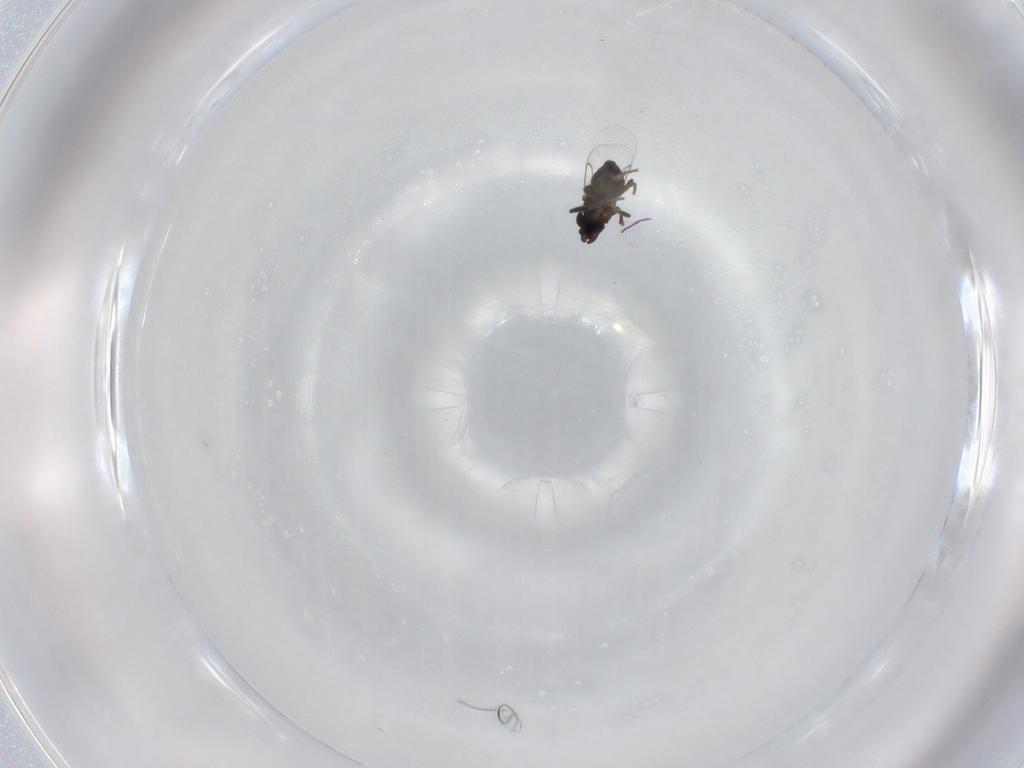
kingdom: Animalia
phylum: Arthropoda
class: Insecta
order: Diptera
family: Phoridae
